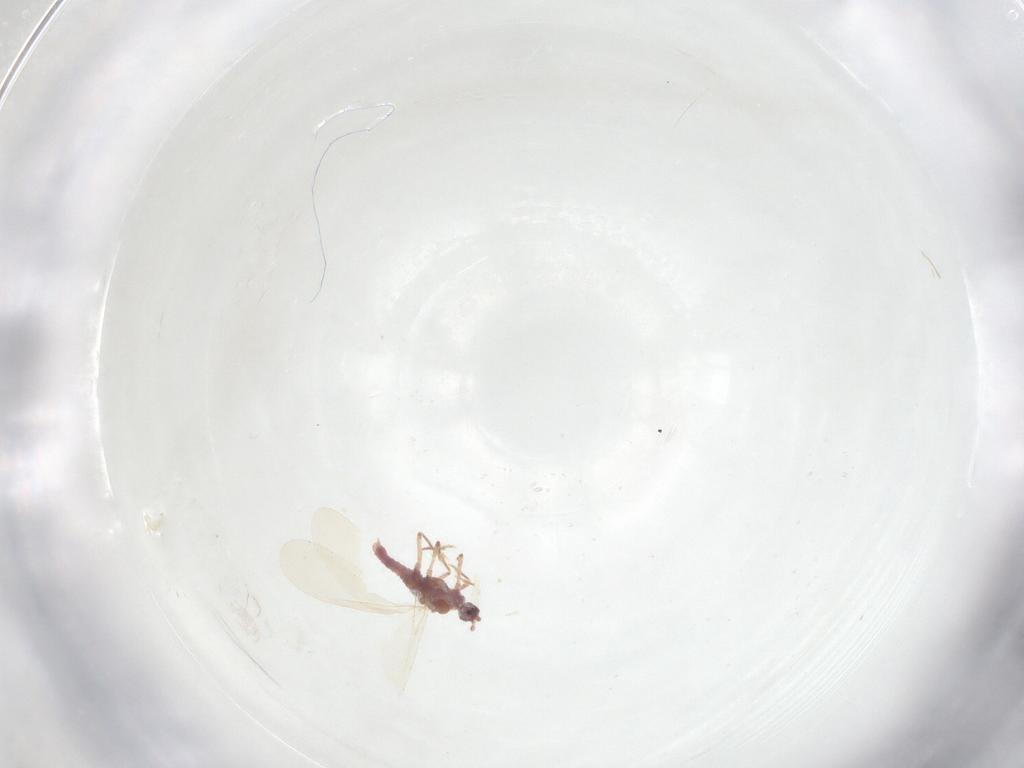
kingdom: Animalia
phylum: Arthropoda
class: Insecta
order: Hemiptera
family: Pseudococcidae
